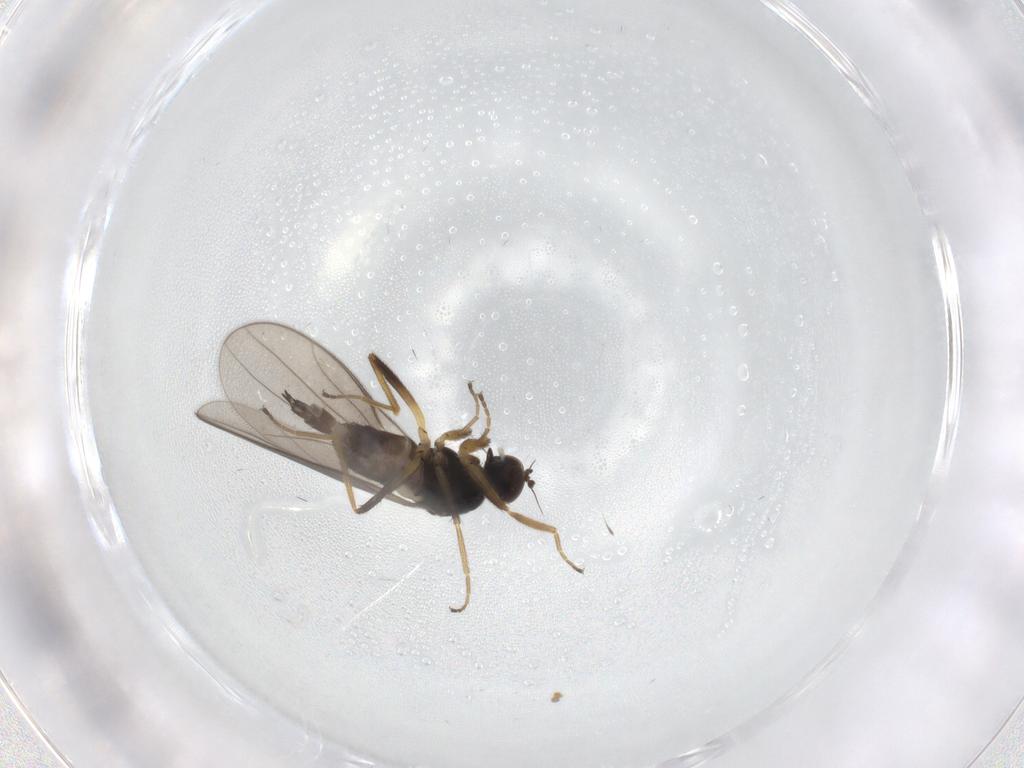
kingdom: Animalia
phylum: Arthropoda
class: Insecta
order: Diptera
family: Hybotidae
